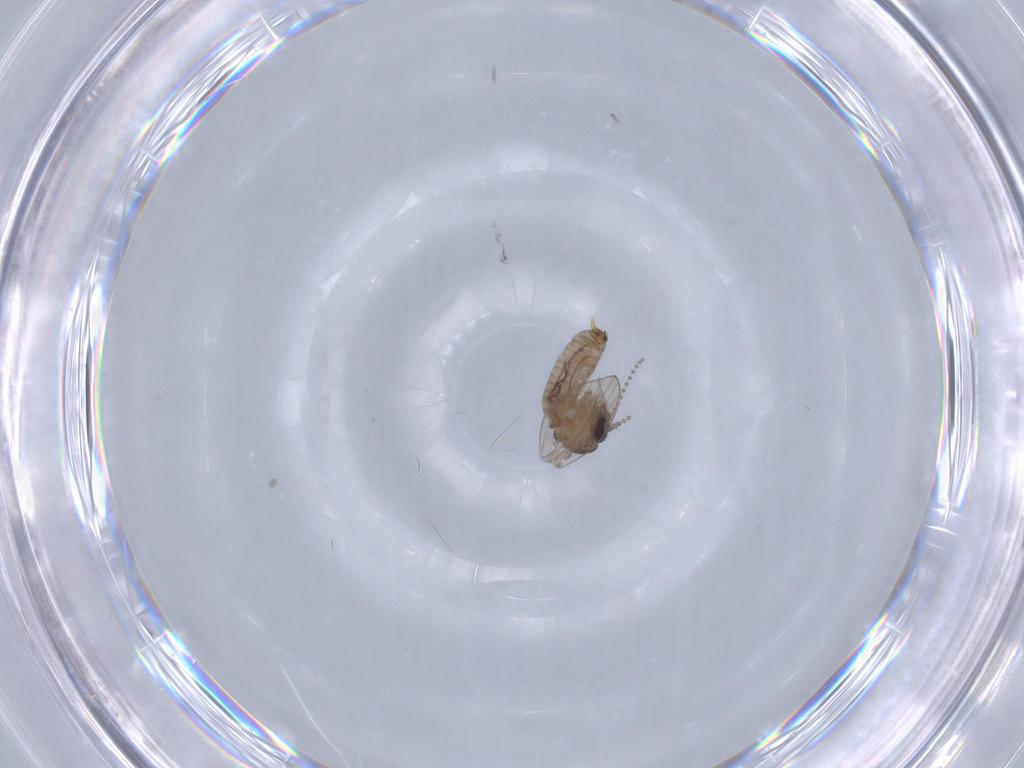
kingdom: Animalia
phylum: Arthropoda
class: Insecta
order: Diptera
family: Psychodidae
